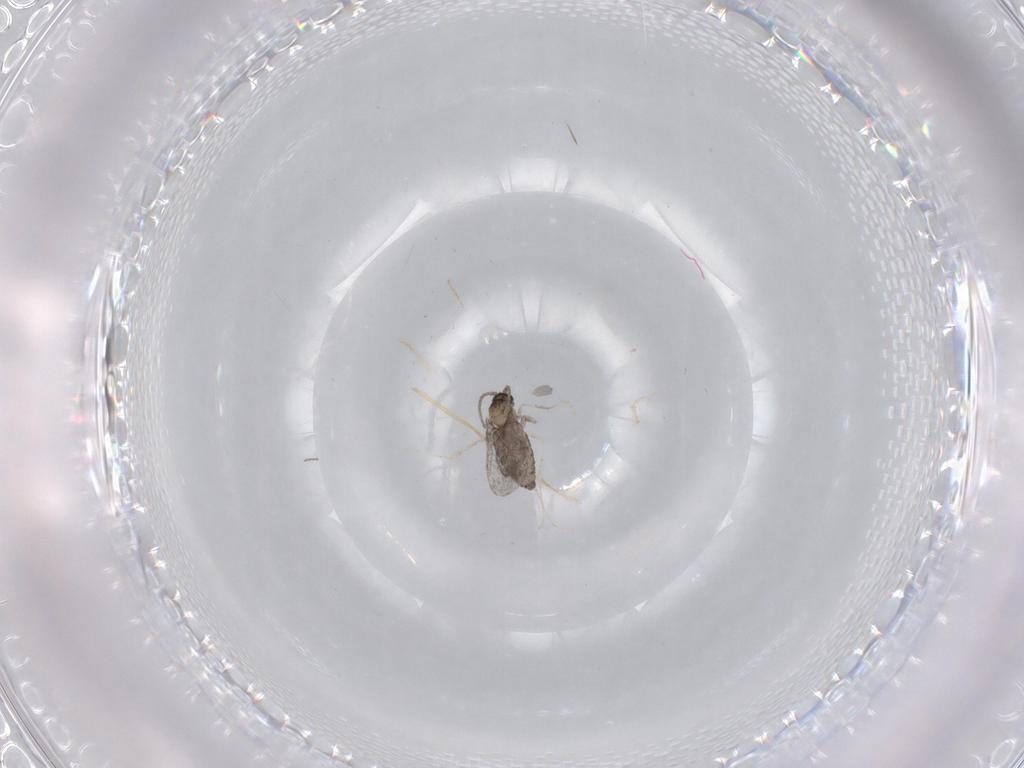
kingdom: Animalia
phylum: Arthropoda
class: Insecta
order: Diptera
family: Cecidomyiidae
